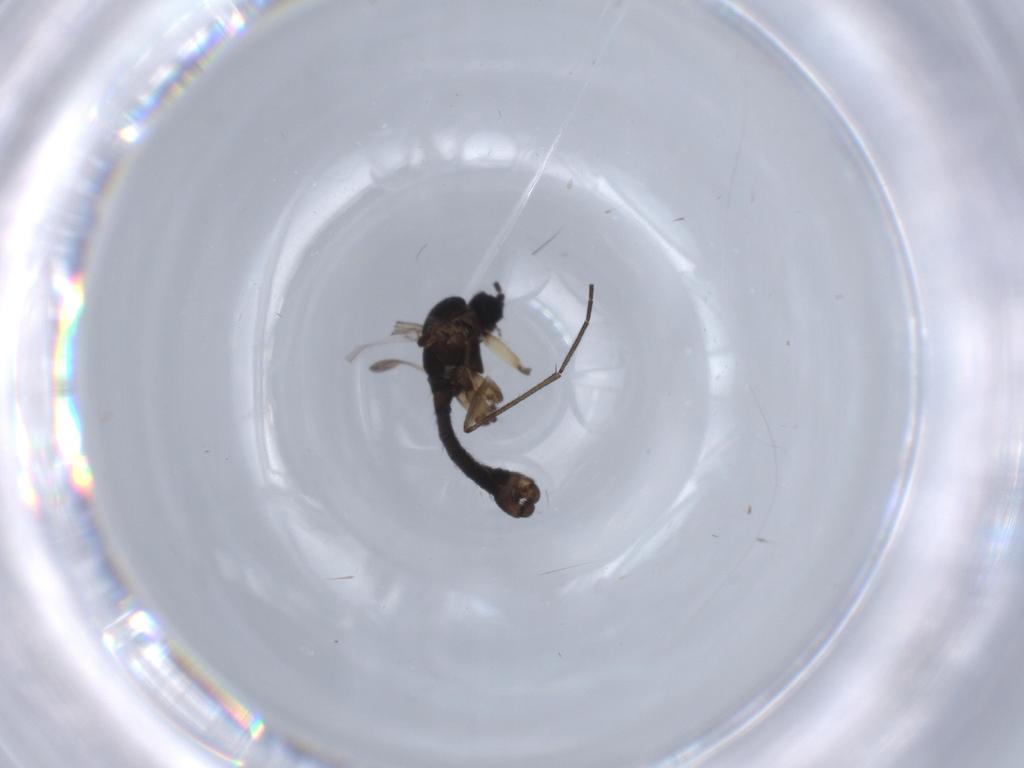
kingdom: Animalia
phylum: Arthropoda
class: Insecta
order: Diptera
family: Sciaridae
